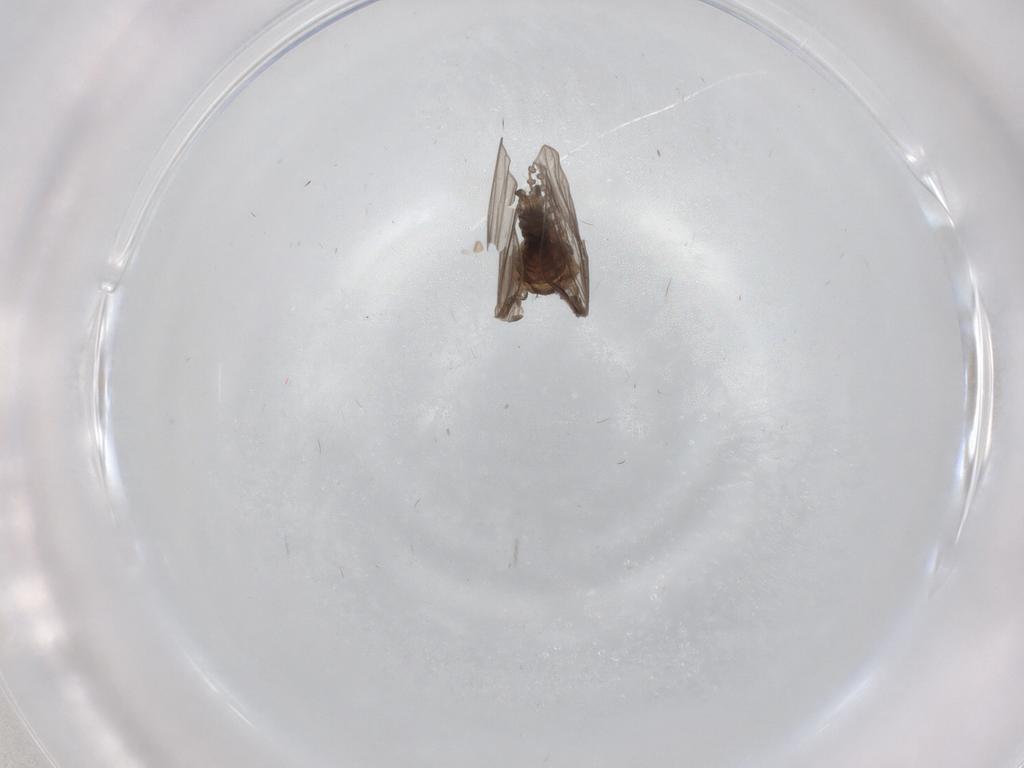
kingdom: Animalia
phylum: Arthropoda
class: Insecta
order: Diptera
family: Psychodidae
